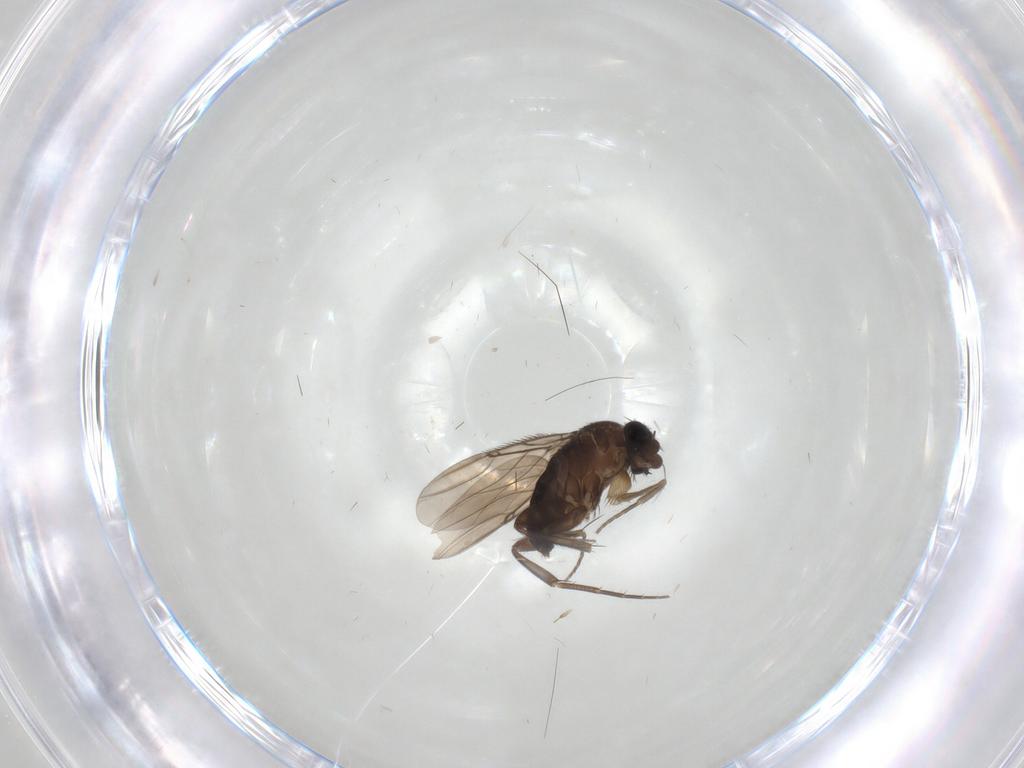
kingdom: Animalia
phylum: Arthropoda
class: Insecta
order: Diptera
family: Phoridae
